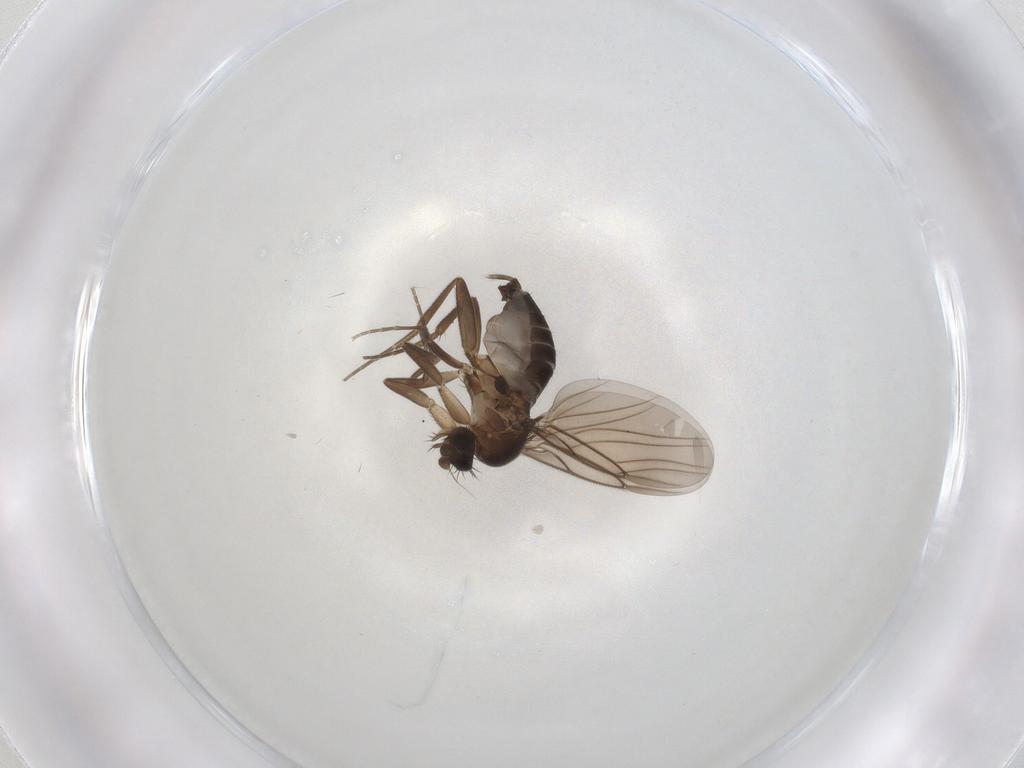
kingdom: Animalia
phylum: Arthropoda
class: Insecta
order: Diptera
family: Phoridae
